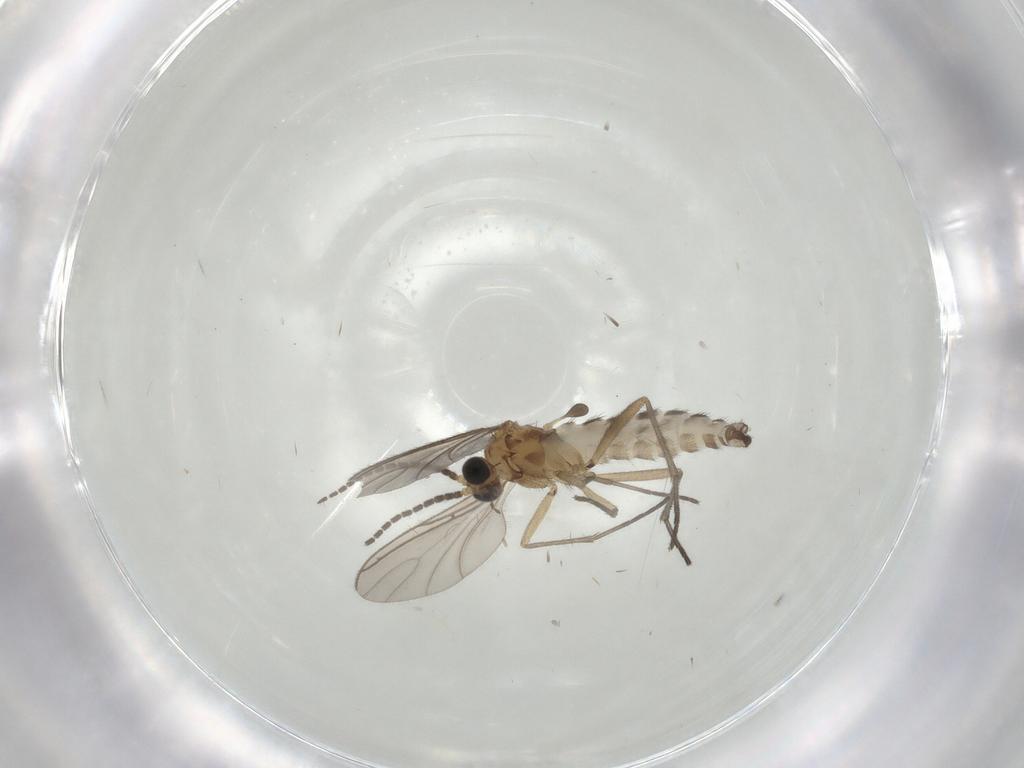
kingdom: Animalia
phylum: Arthropoda
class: Insecta
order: Diptera
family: Sciaridae
